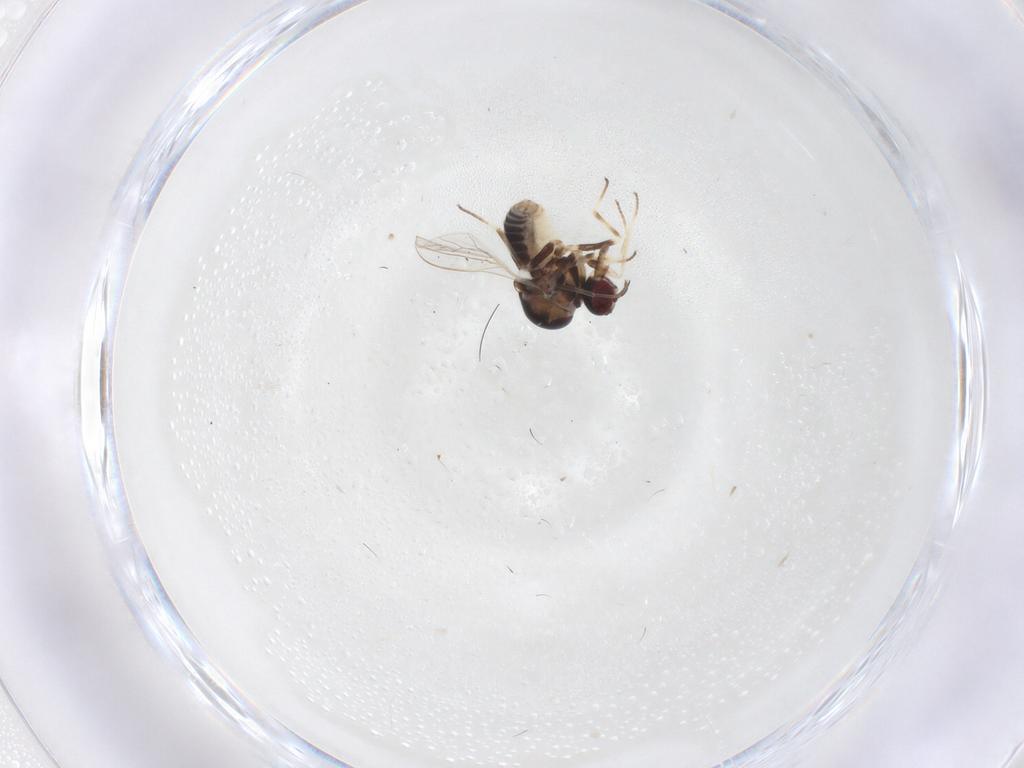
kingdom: Animalia
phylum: Arthropoda
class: Insecta
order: Diptera
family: Bombyliidae
